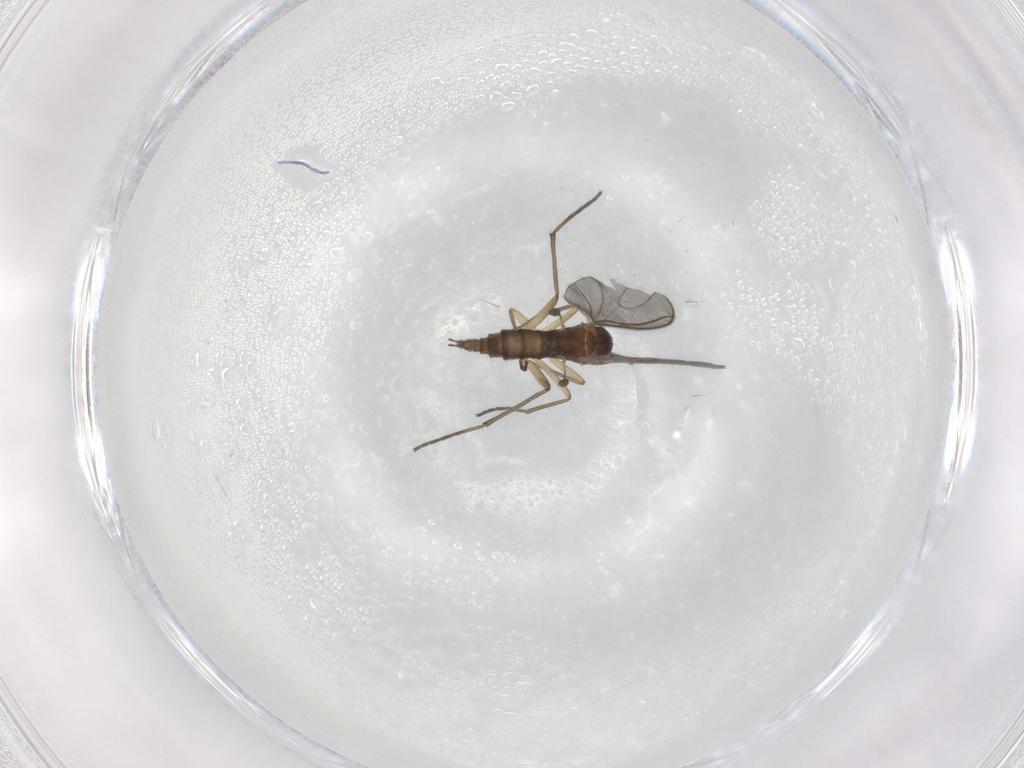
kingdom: Animalia
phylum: Arthropoda
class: Insecta
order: Diptera
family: Sciaridae
